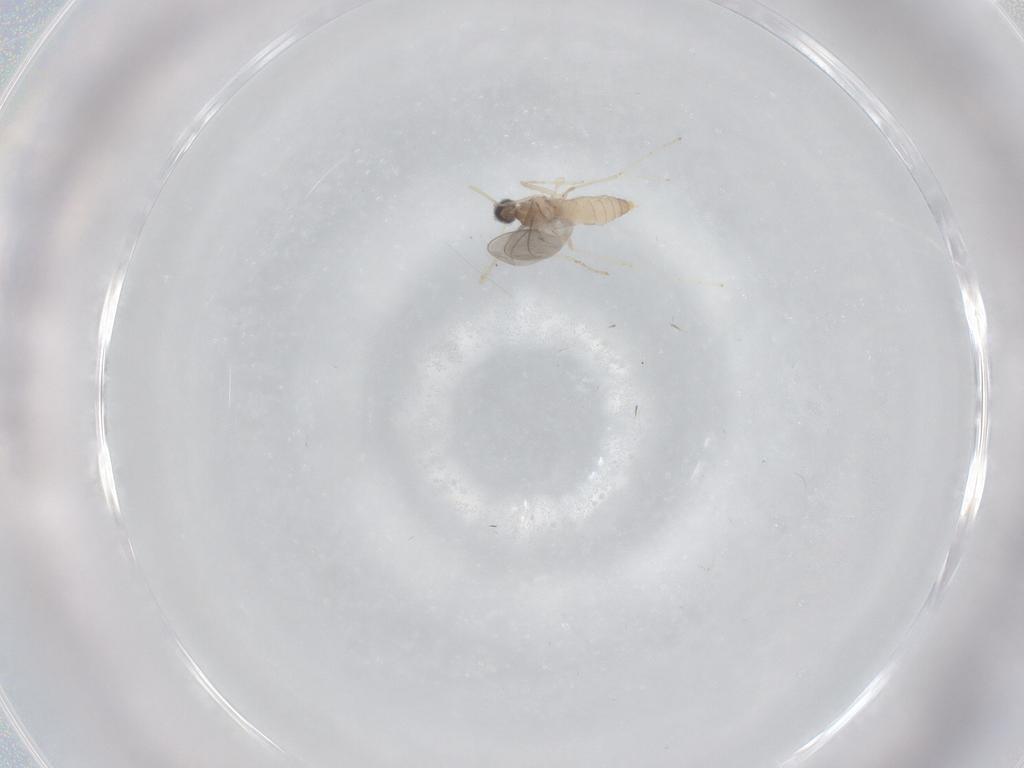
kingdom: Animalia
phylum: Arthropoda
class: Insecta
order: Diptera
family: Cecidomyiidae
